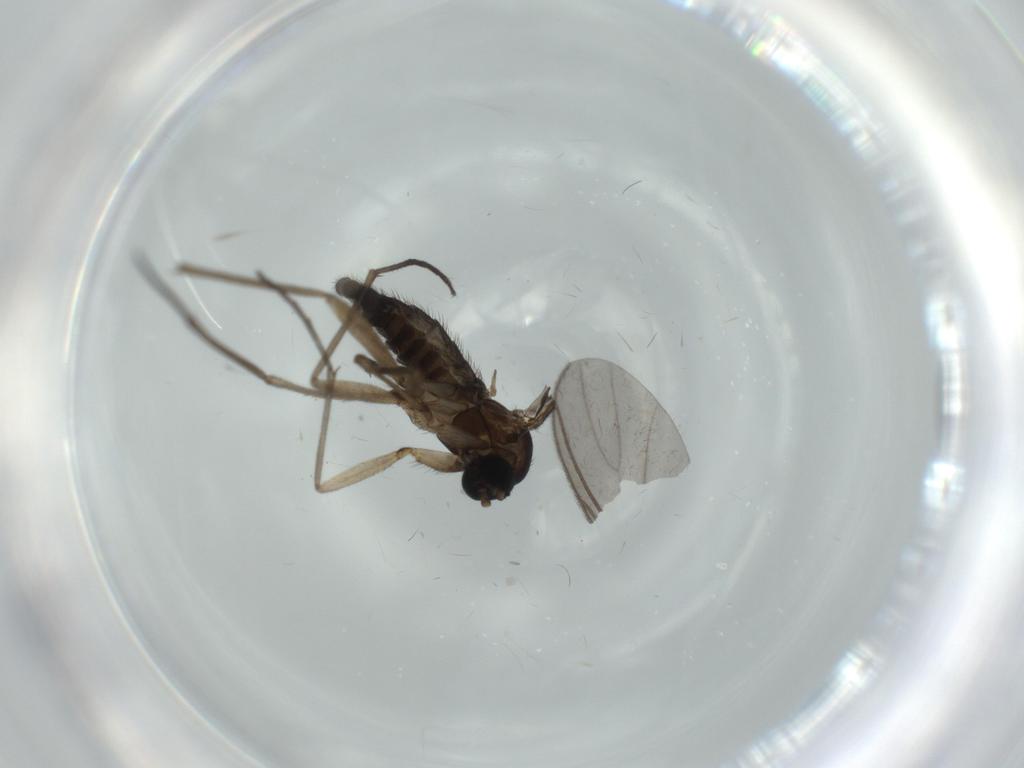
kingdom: Animalia
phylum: Arthropoda
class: Insecta
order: Diptera
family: Sciaridae
